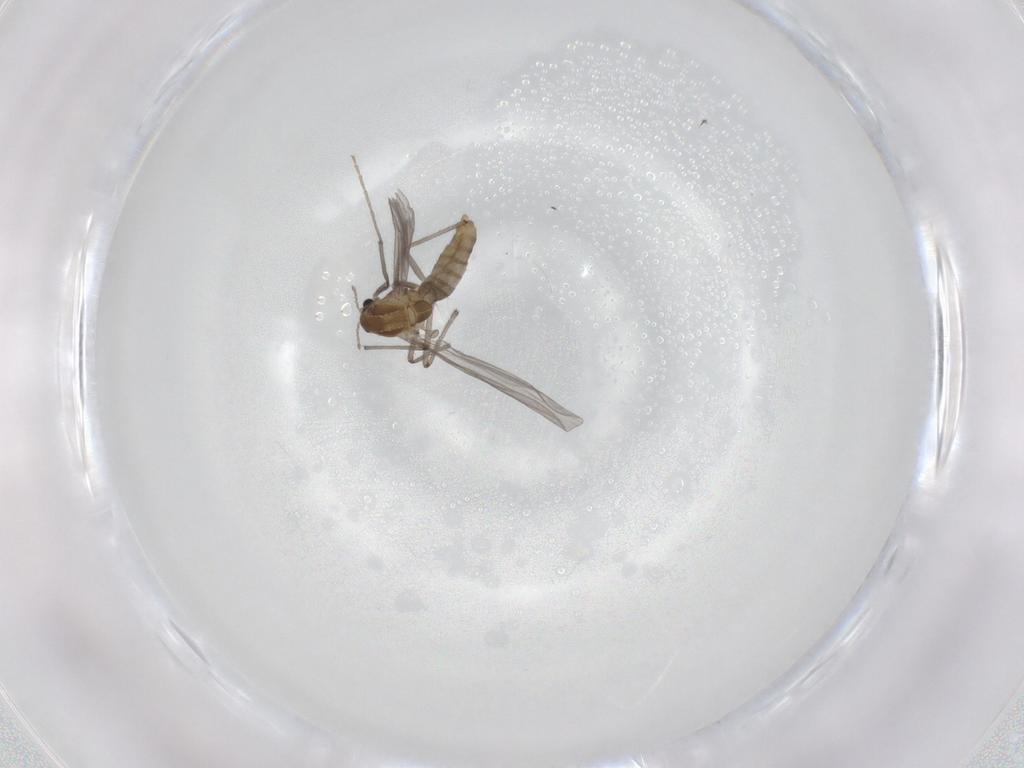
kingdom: Animalia
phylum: Arthropoda
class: Insecta
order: Diptera
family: Chironomidae
